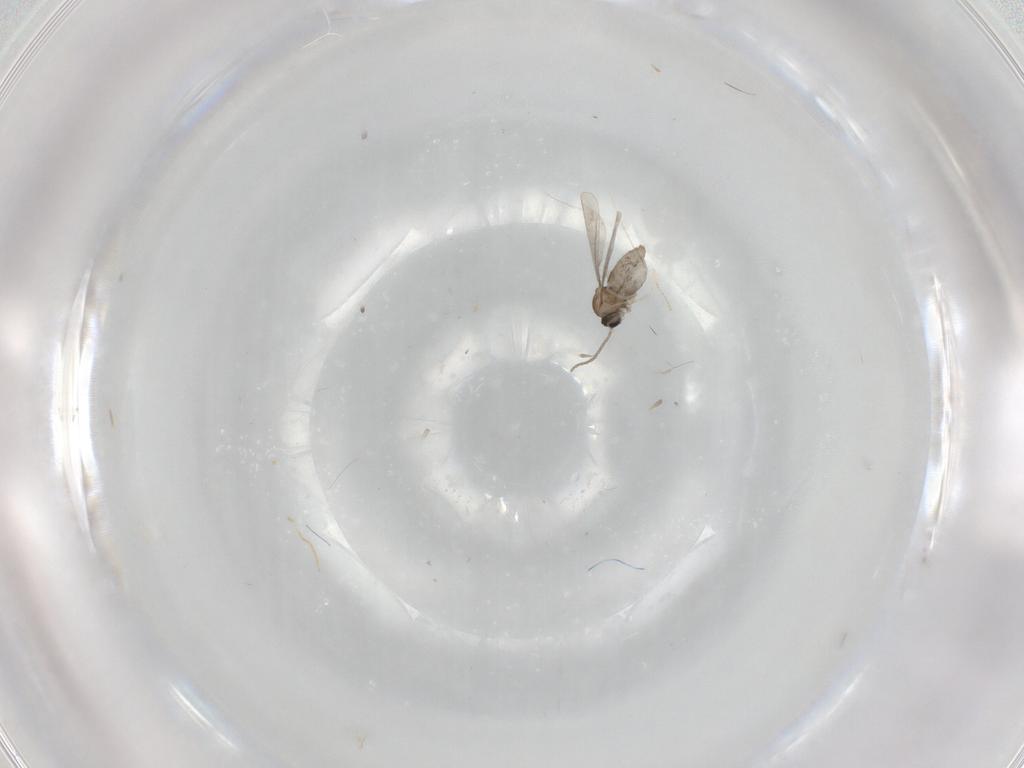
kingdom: Animalia
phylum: Arthropoda
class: Insecta
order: Diptera
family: Cecidomyiidae
